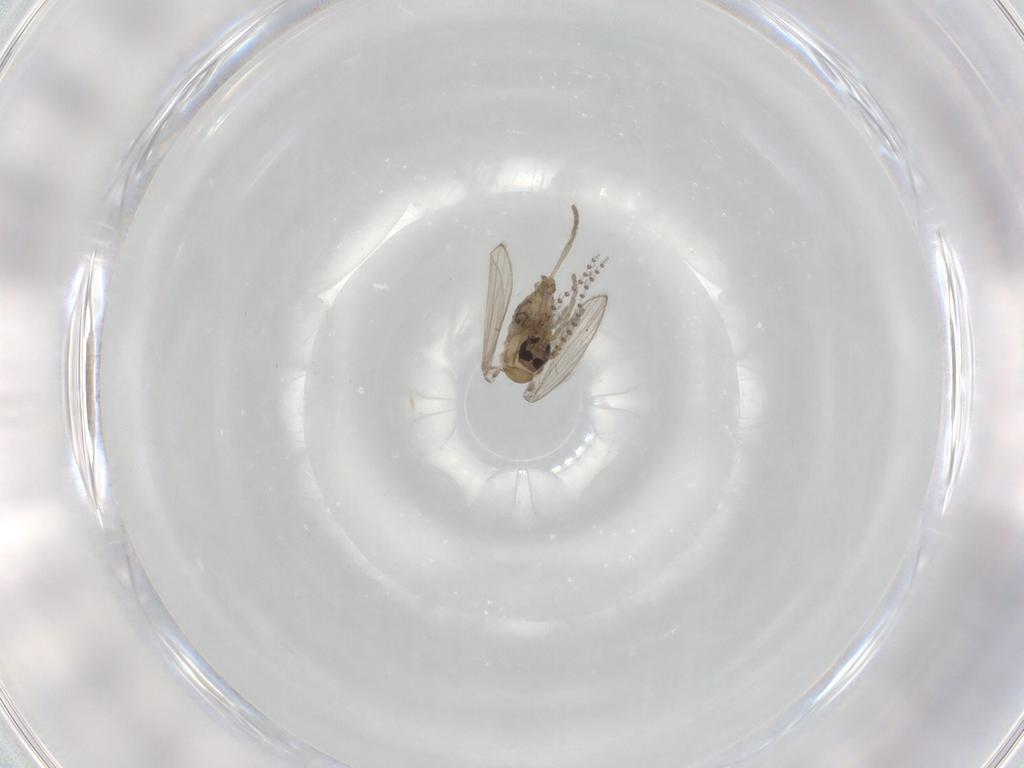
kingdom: Animalia
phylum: Arthropoda
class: Insecta
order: Diptera
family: Psychodidae
